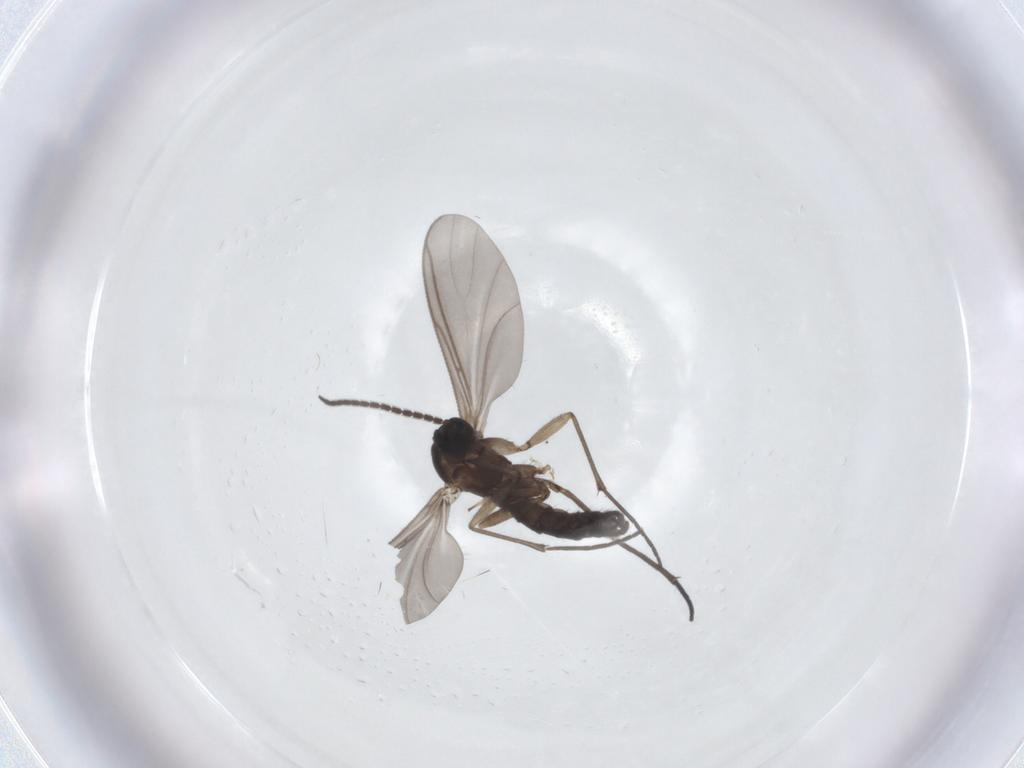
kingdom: Animalia
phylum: Arthropoda
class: Insecta
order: Diptera
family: Sciaridae
